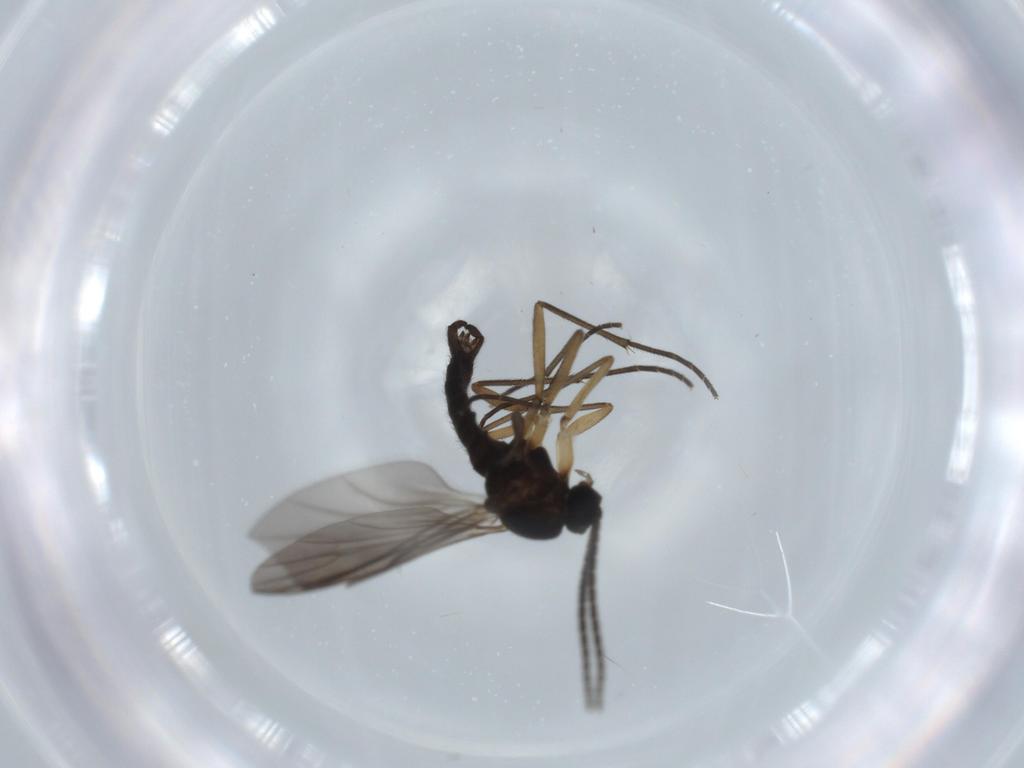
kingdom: Animalia
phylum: Arthropoda
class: Insecta
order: Diptera
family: Sciaridae
